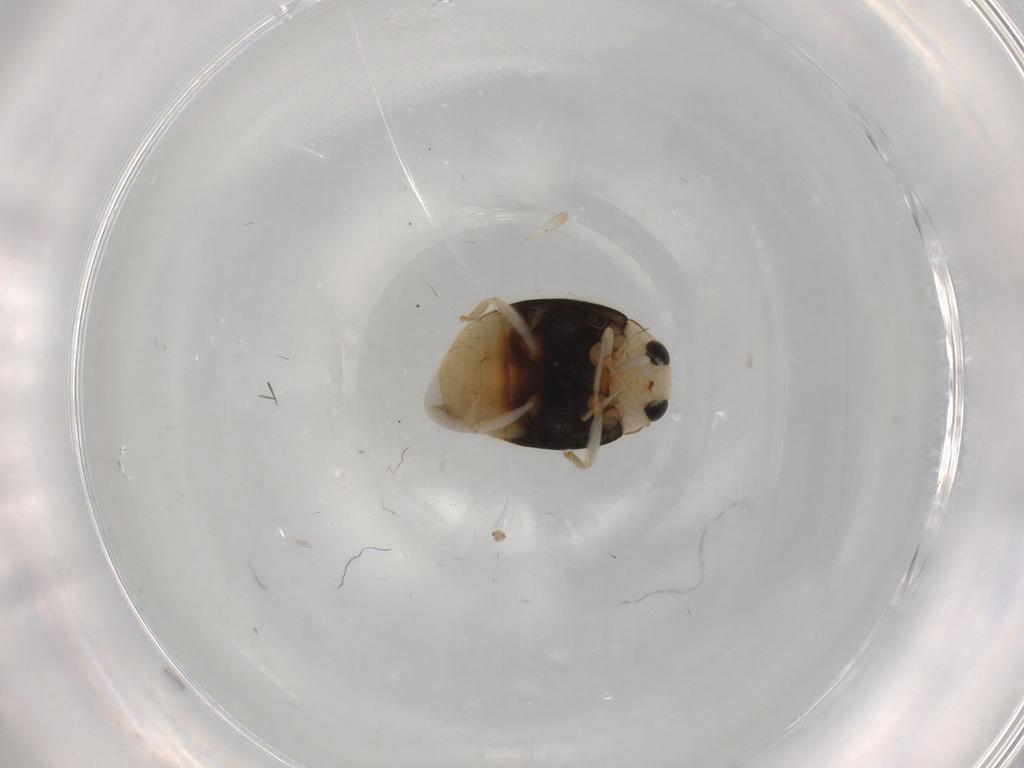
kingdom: Animalia
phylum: Arthropoda
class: Insecta
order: Coleoptera
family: Coccinellidae
